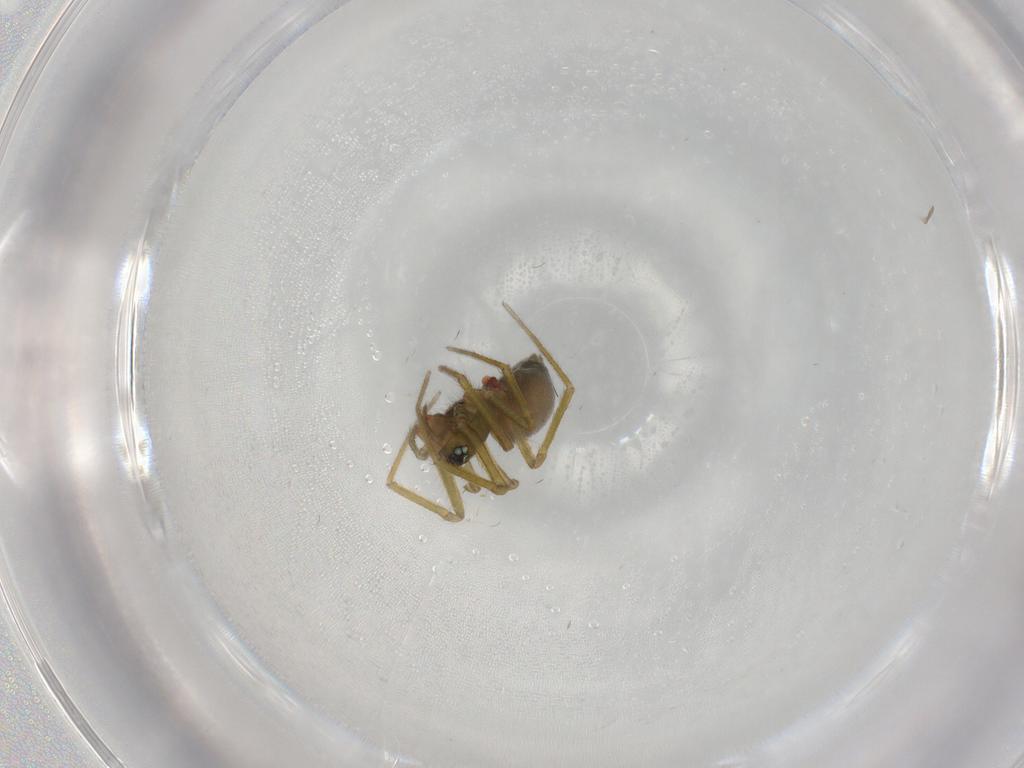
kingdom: Animalia
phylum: Arthropoda
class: Arachnida
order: Araneae
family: Linyphiidae
